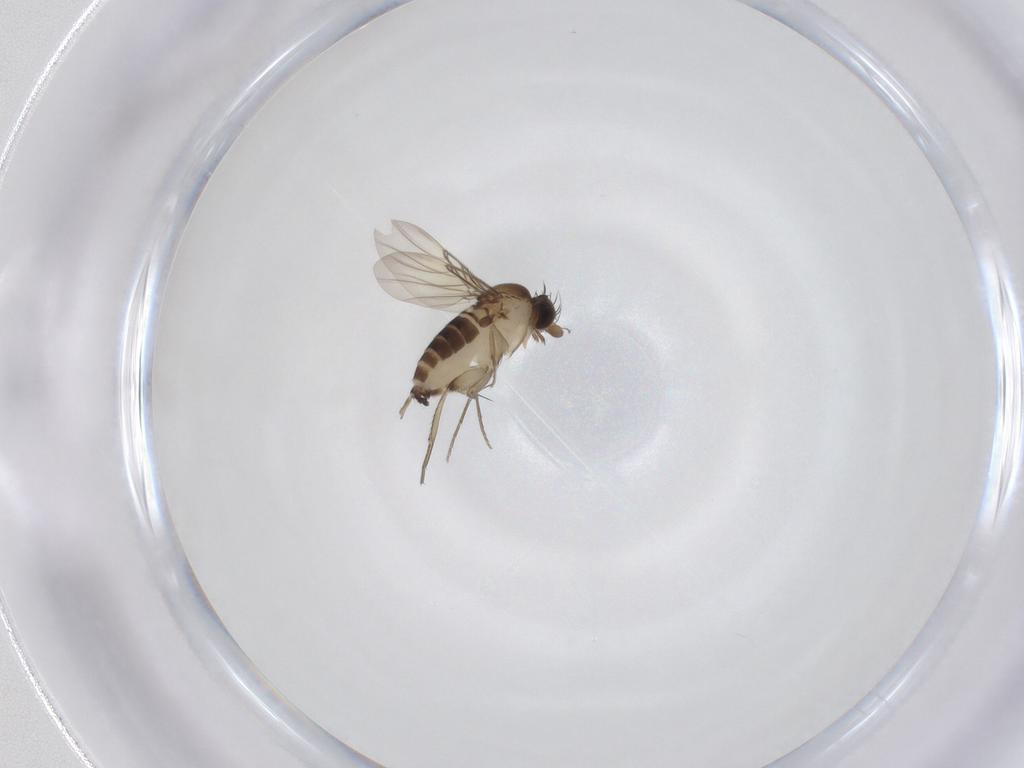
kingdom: Animalia
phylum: Arthropoda
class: Insecta
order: Diptera
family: Phoridae
